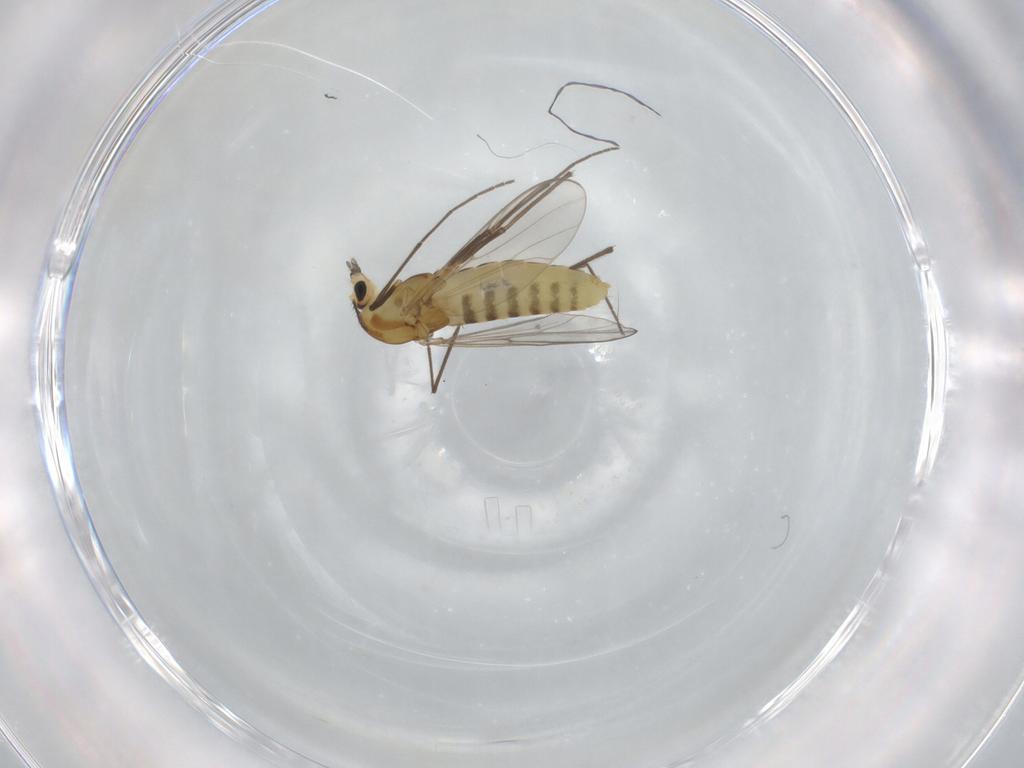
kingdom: Animalia
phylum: Arthropoda
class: Insecta
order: Diptera
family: Chironomidae
